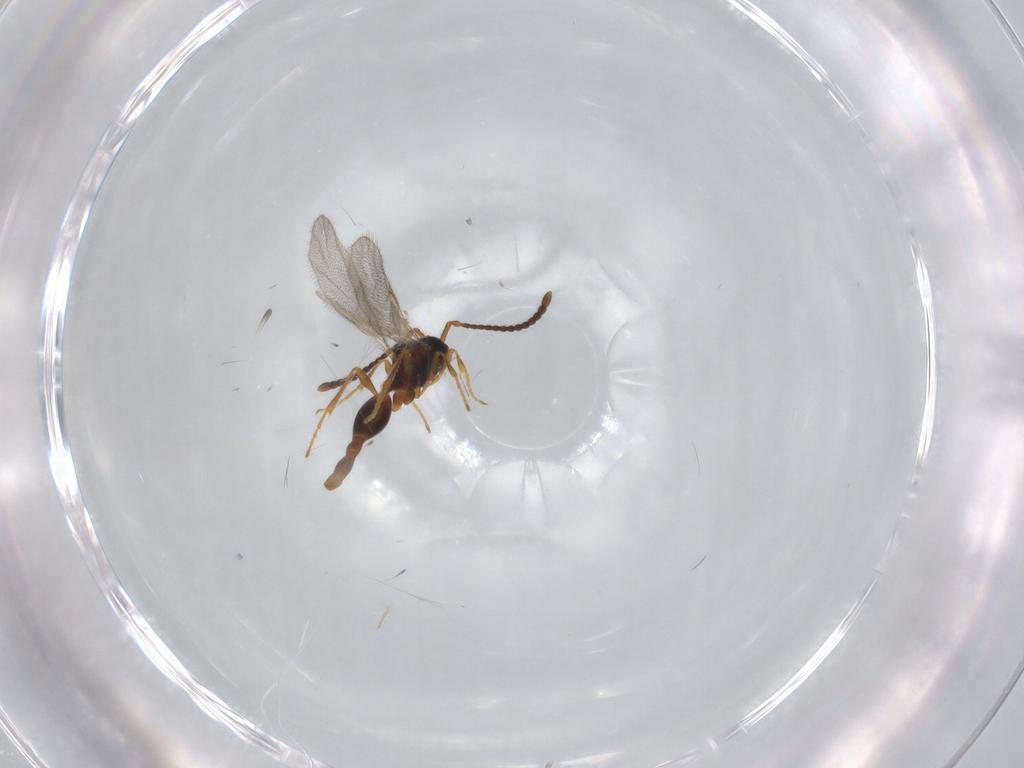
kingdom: Animalia
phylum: Arthropoda
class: Insecta
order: Hymenoptera
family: Diapriidae
